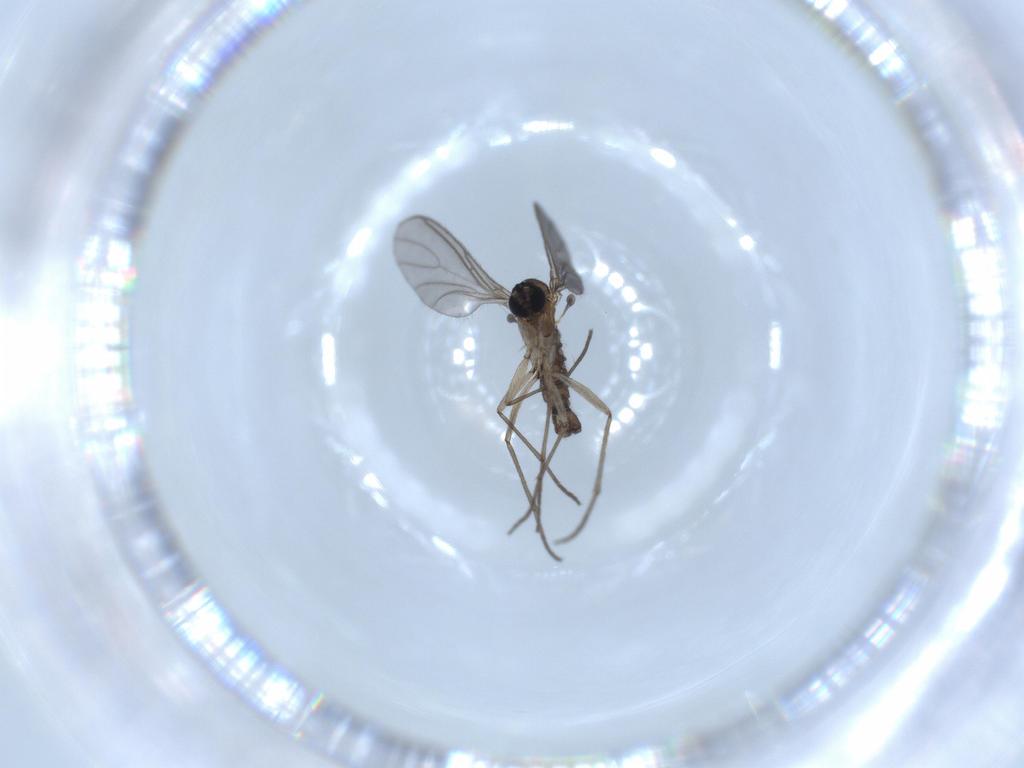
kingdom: Animalia
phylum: Arthropoda
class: Insecta
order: Diptera
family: Sciaridae
